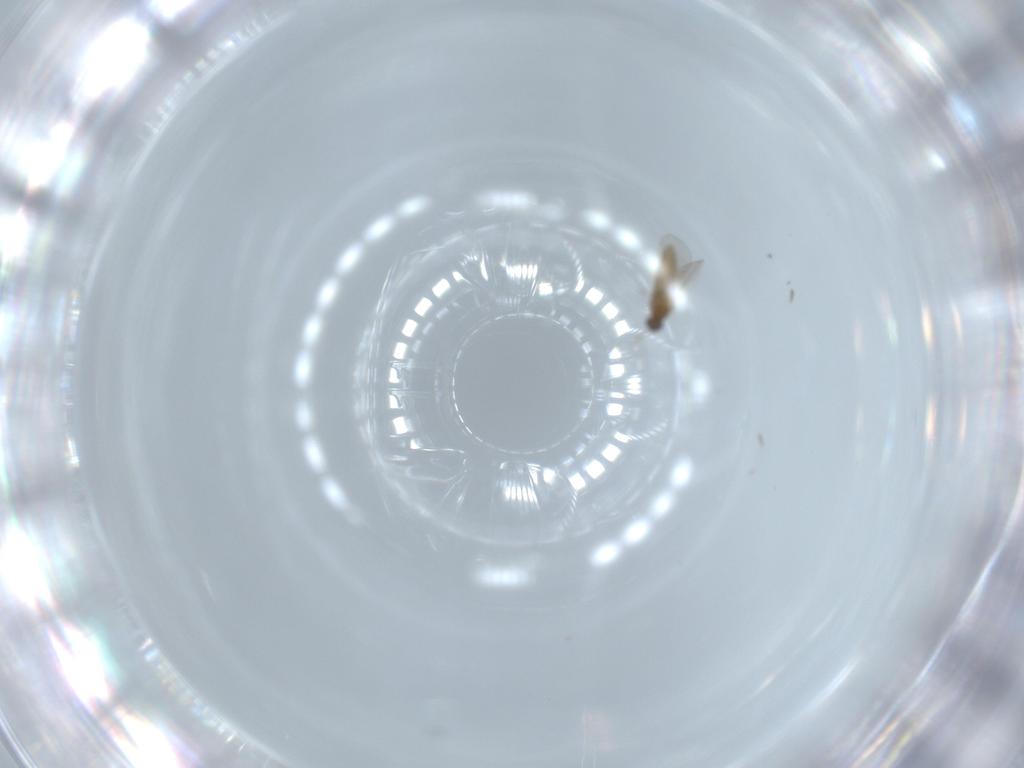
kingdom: Animalia
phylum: Arthropoda
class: Insecta
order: Diptera
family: Cecidomyiidae
